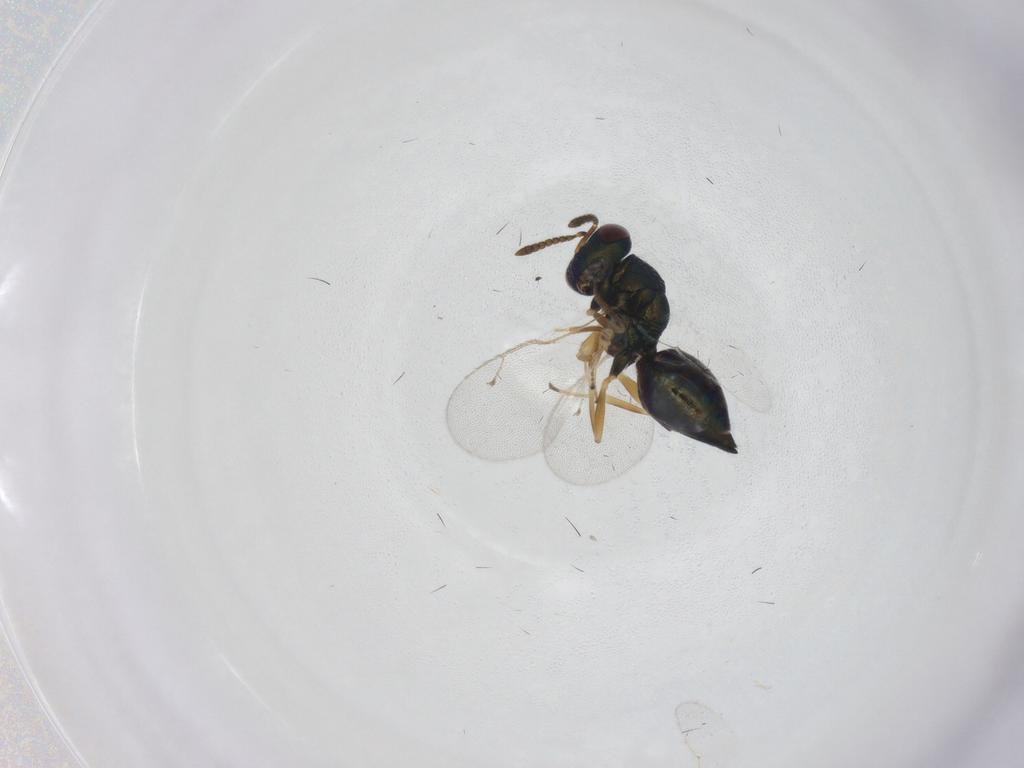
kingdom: Animalia
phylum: Arthropoda
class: Insecta
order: Hymenoptera
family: Pteromalidae
